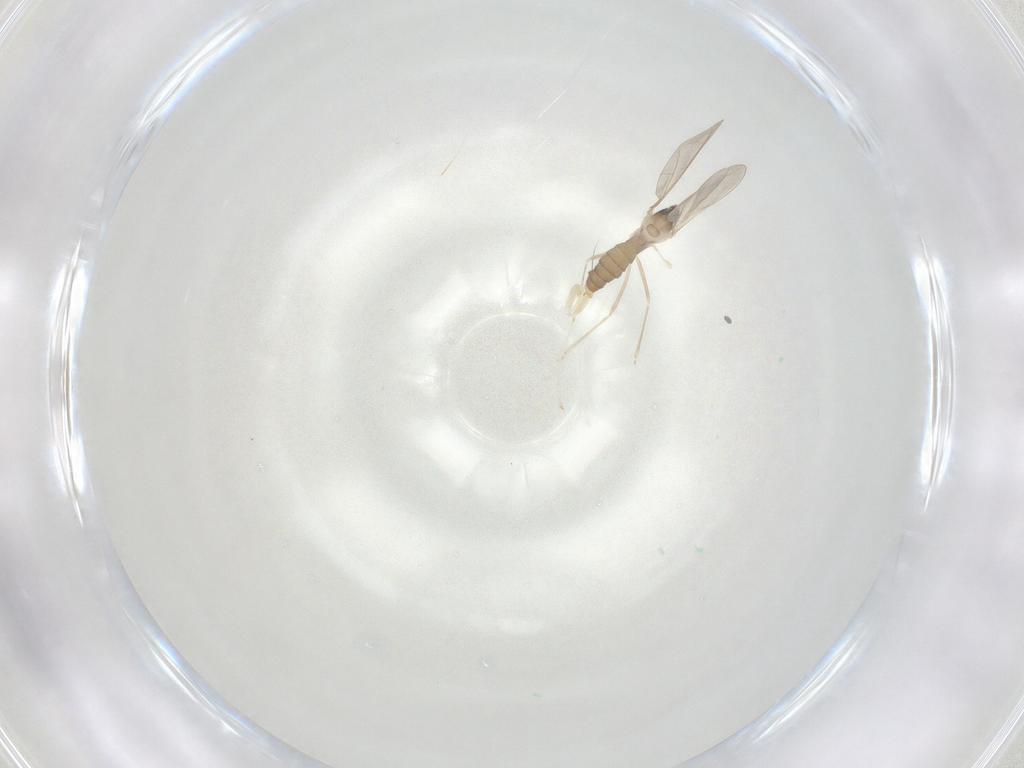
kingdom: Animalia
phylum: Arthropoda
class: Insecta
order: Diptera
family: Cecidomyiidae
